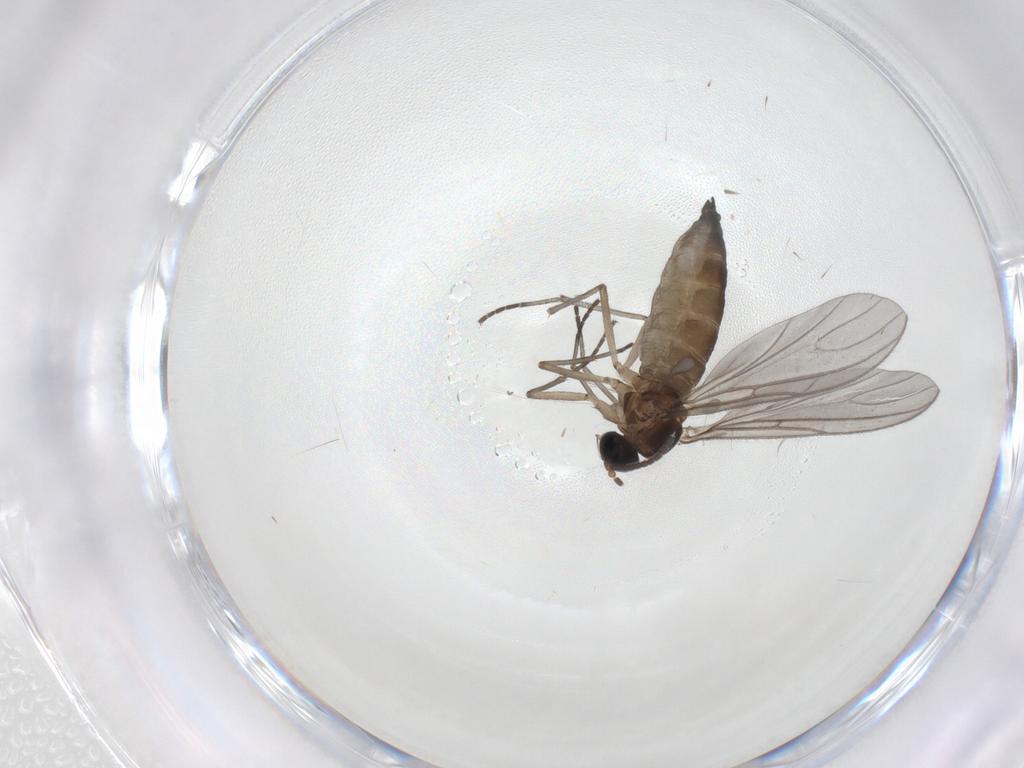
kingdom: Animalia
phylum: Arthropoda
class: Insecta
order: Diptera
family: Sciaridae
